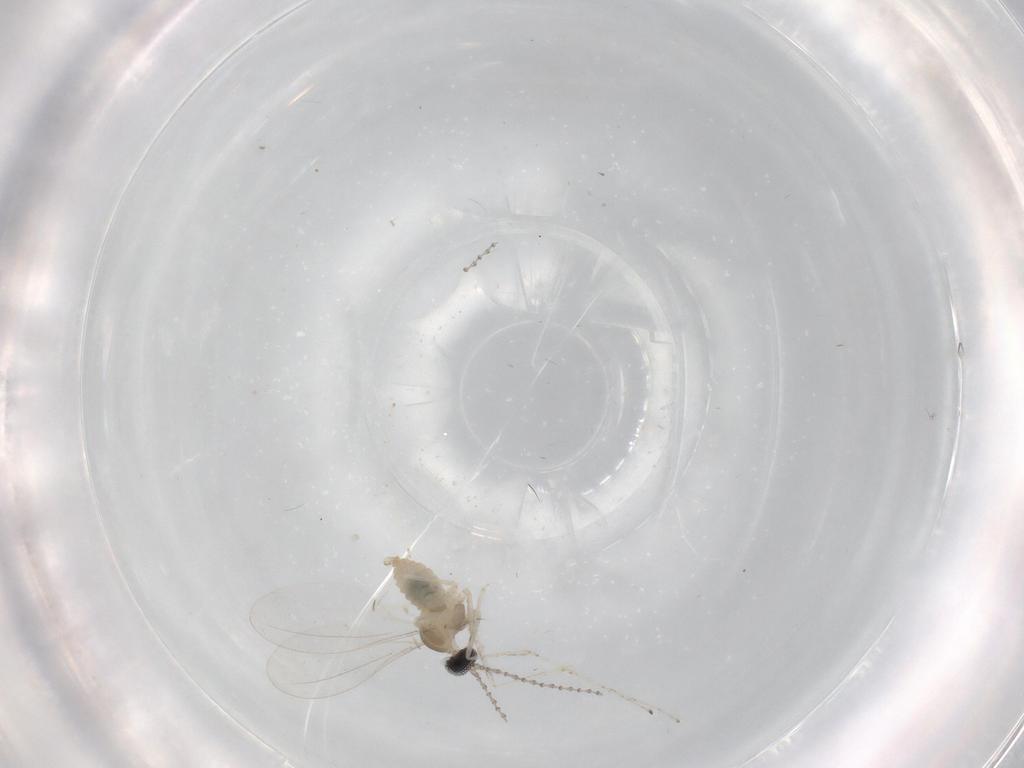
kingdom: Animalia
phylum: Arthropoda
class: Insecta
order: Diptera
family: Cecidomyiidae
